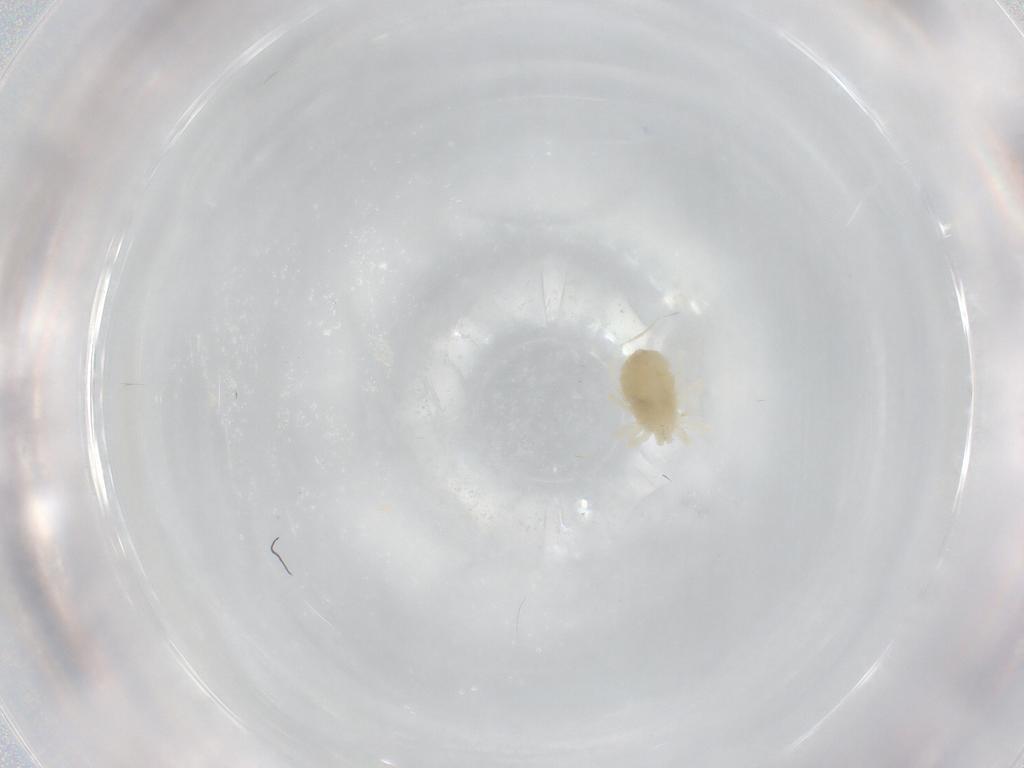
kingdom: Animalia
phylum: Arthropoda
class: Arachnida
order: Trombidiformes
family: Anystidae
